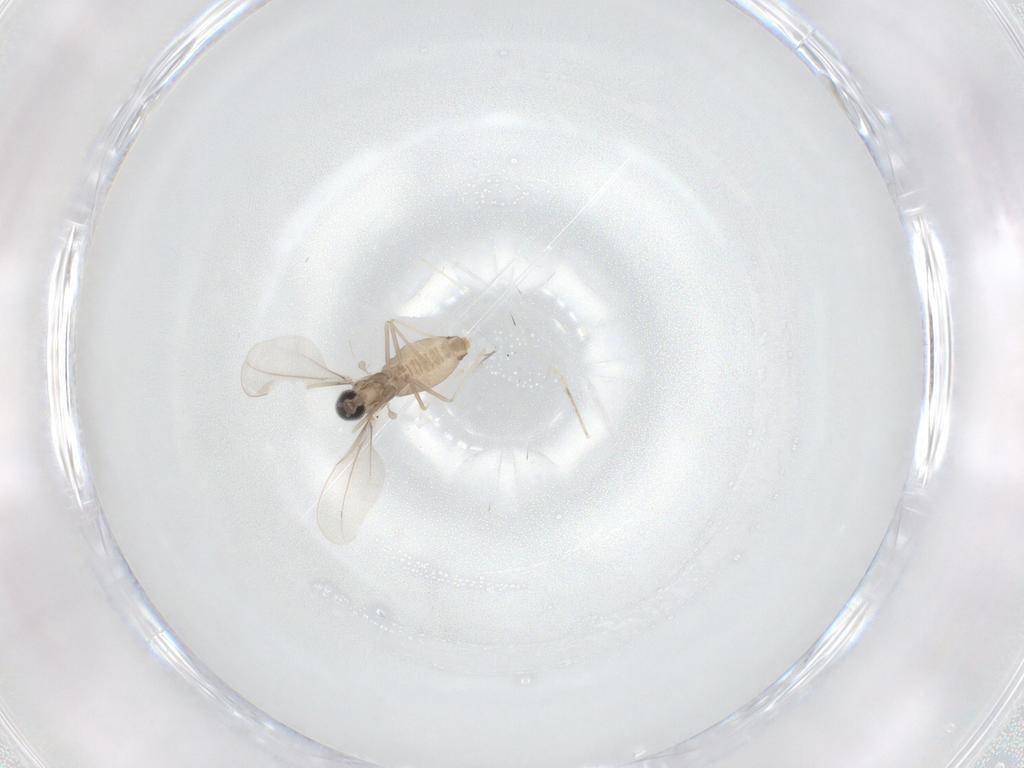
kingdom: Animalia
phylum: Arthropoda
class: Insecta
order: Diptera
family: Cecidomyiidae
